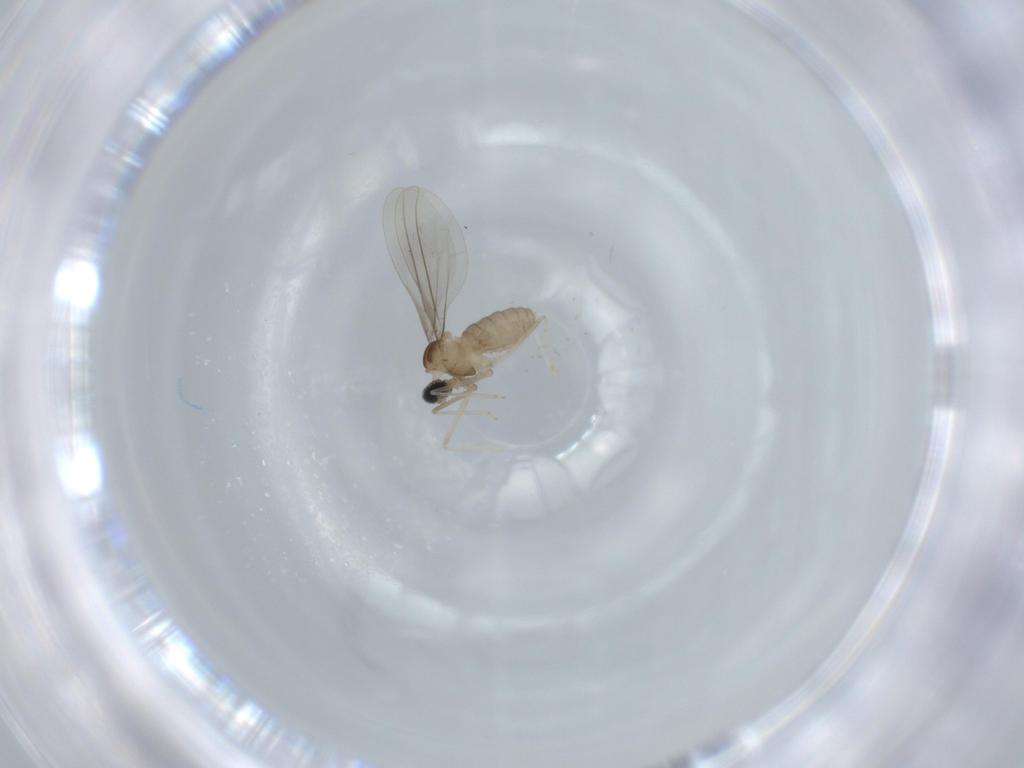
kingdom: Animalia
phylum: Arthropoda
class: Insecta
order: Diptera
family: Cecidomyiidae
